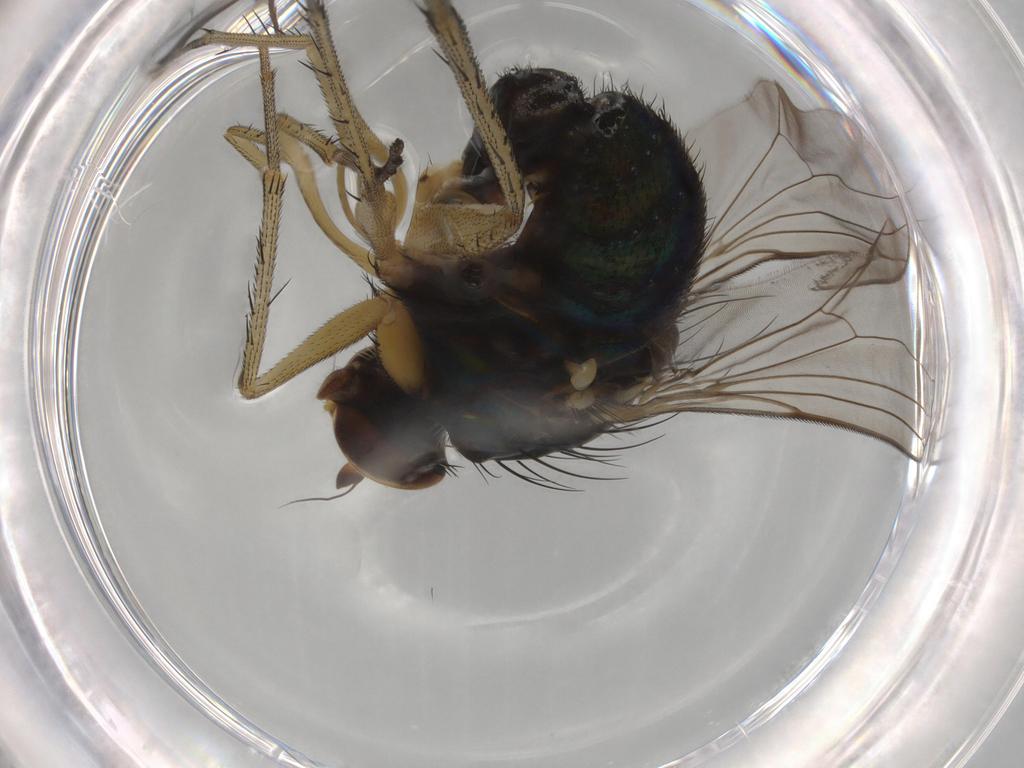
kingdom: Animalia
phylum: Arthropoda
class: Insecta
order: Diptera
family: Dolichopodidae
